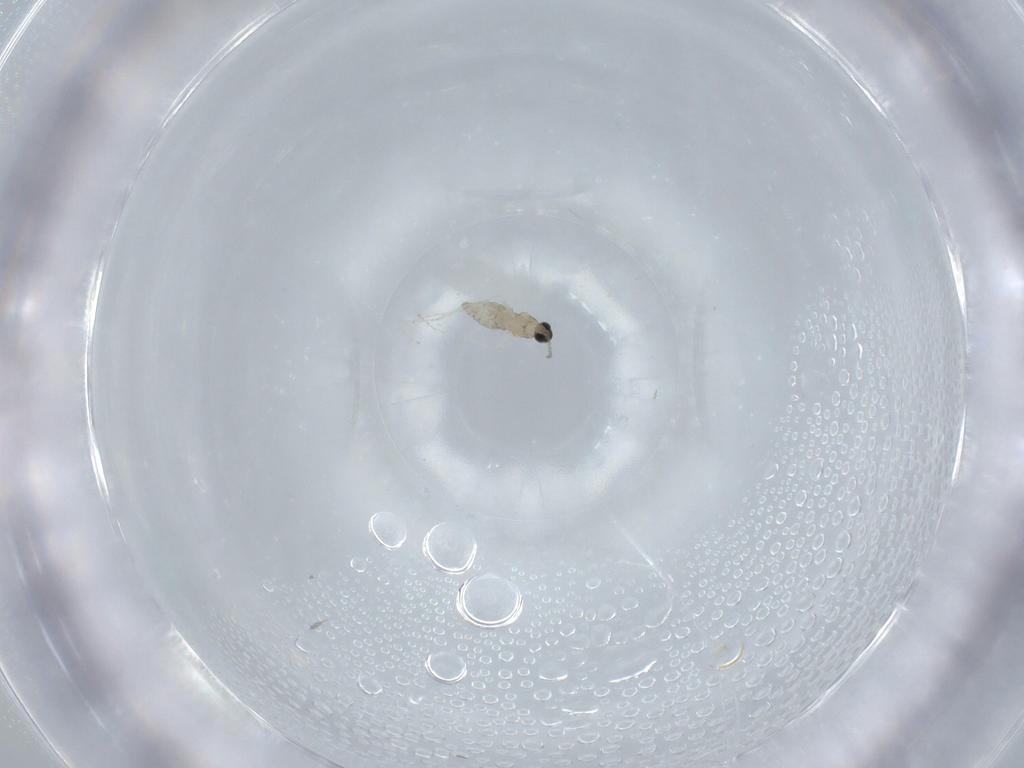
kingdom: Animalia
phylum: Arthropoda
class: Insecta
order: Diptera
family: Cecidomyiidae
